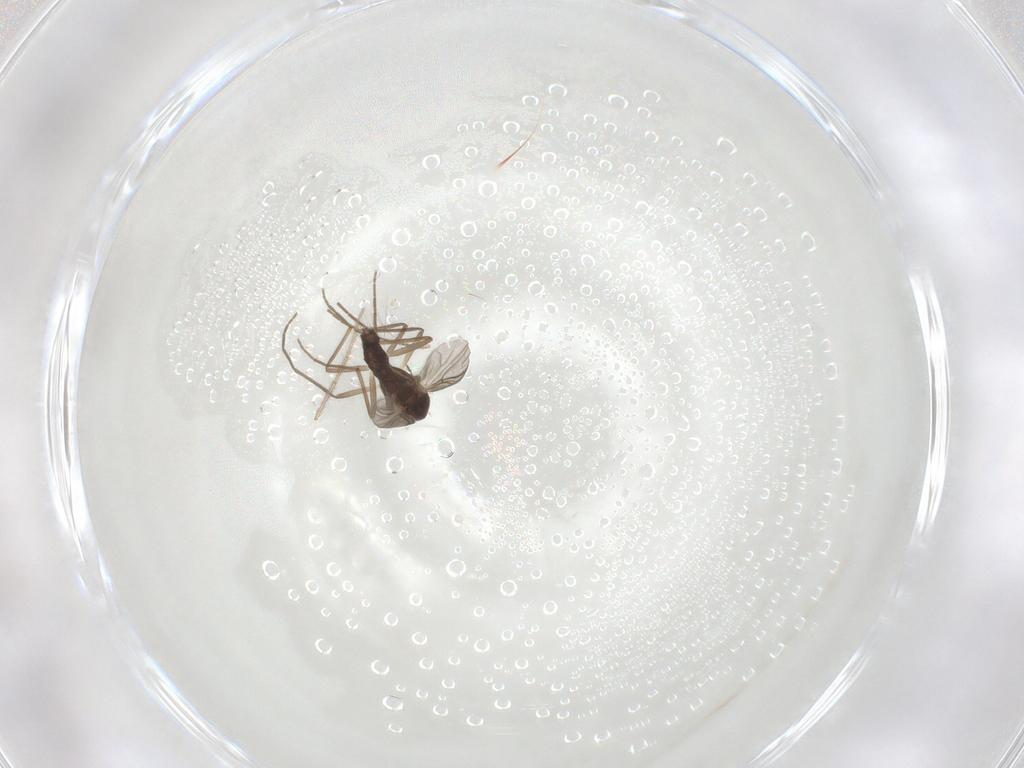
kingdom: Animalia
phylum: Arthropoda
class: Insecta
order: Diptera
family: Chironomidae
